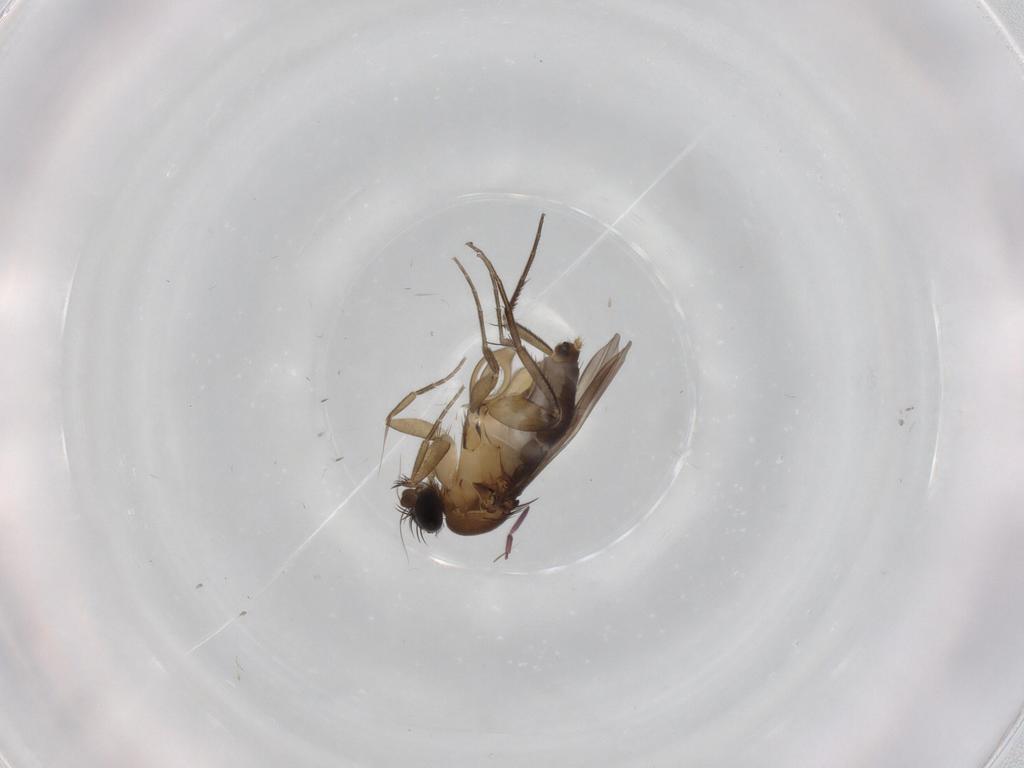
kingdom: Animalia
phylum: Arthropoda
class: Insecta
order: Diptera
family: Phoridae
